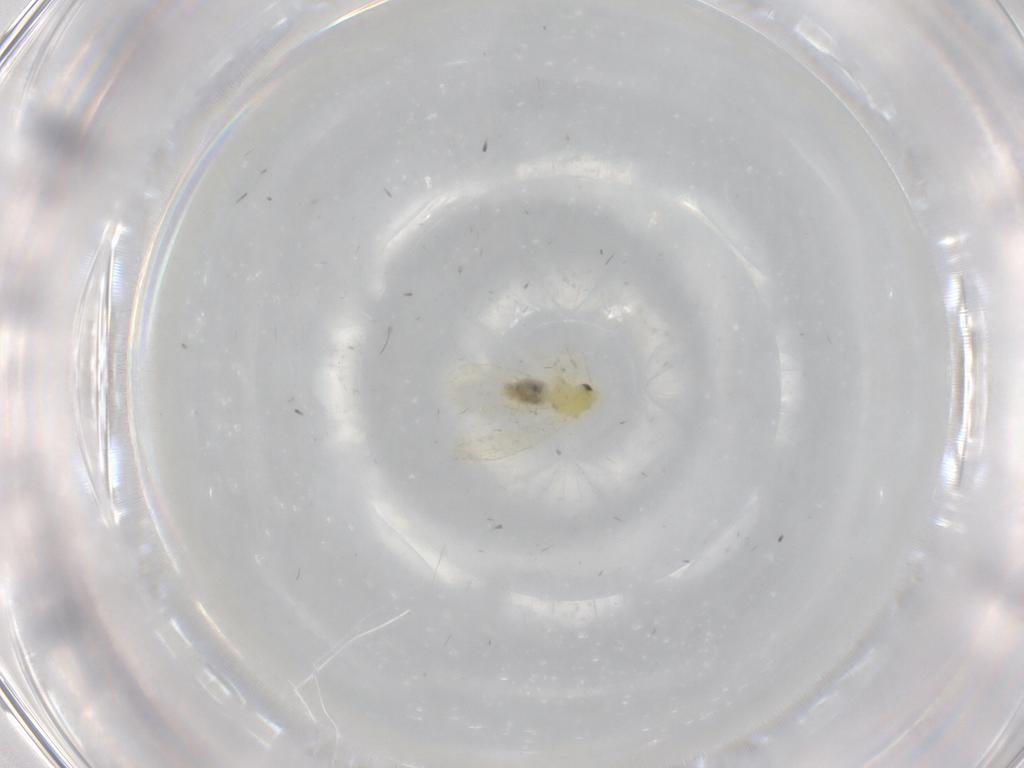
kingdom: Animalia
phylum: Arthropoda
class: Insecta
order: Hemiptera
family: Aleyrodidae
